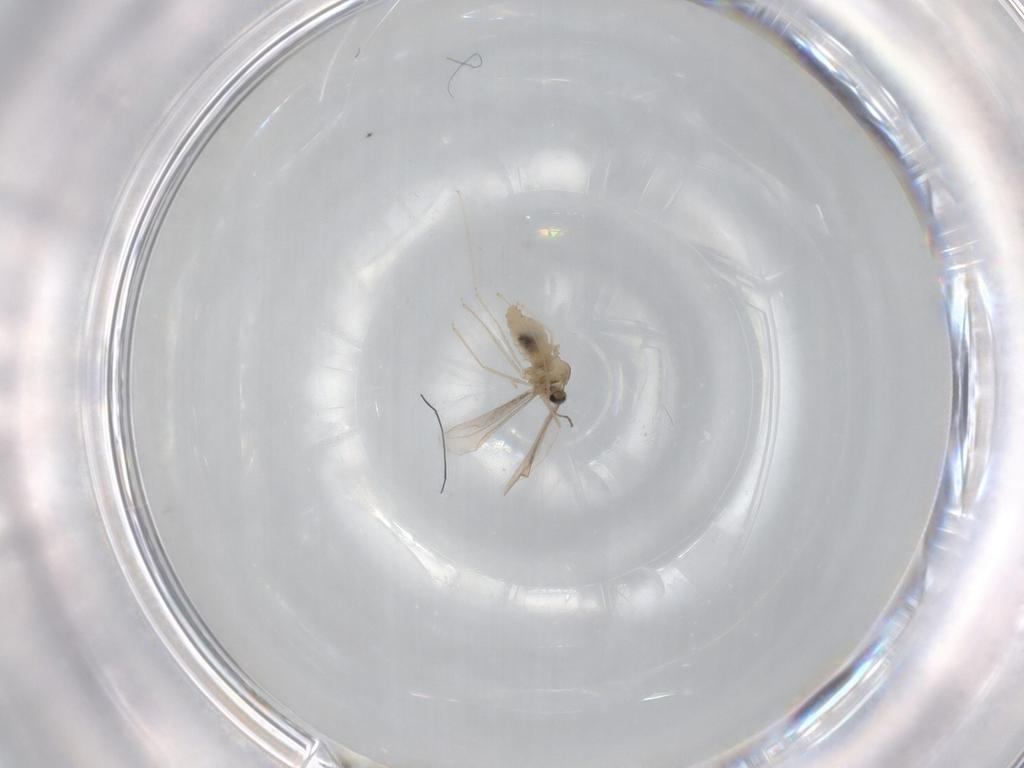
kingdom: Animalia
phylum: Arthropoda
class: Insecta
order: Diptera
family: Cecidomyiidae
